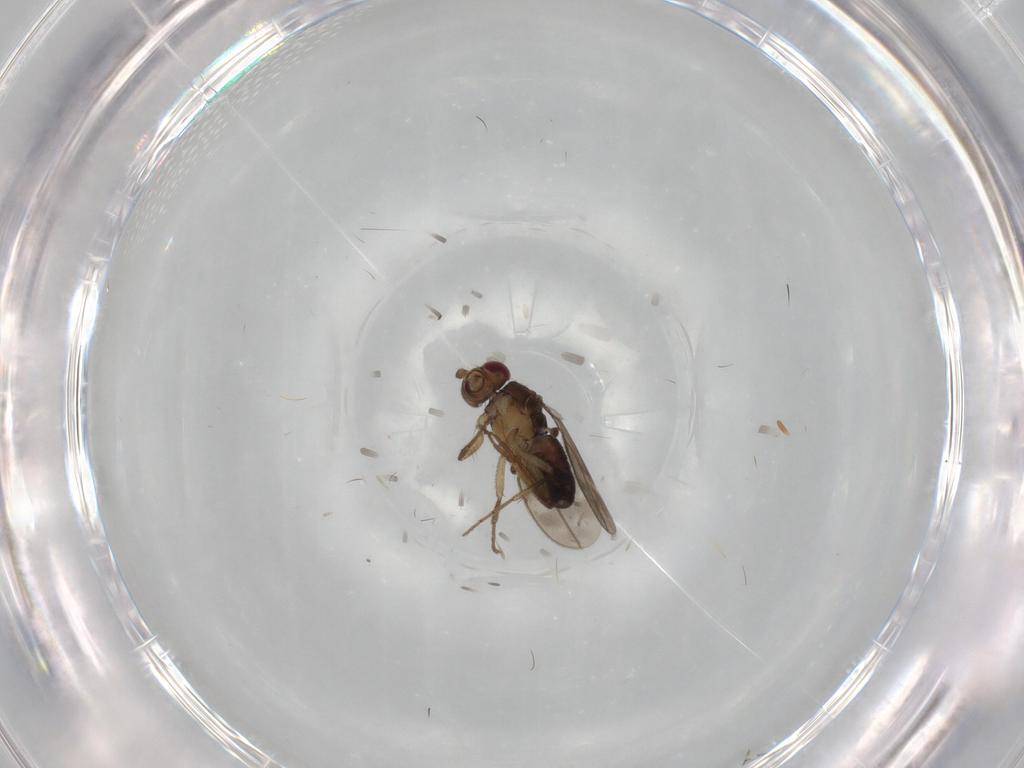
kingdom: Animalia
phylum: Arthropoda
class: Insecta
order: Diptera
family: Sphaeroceridae
